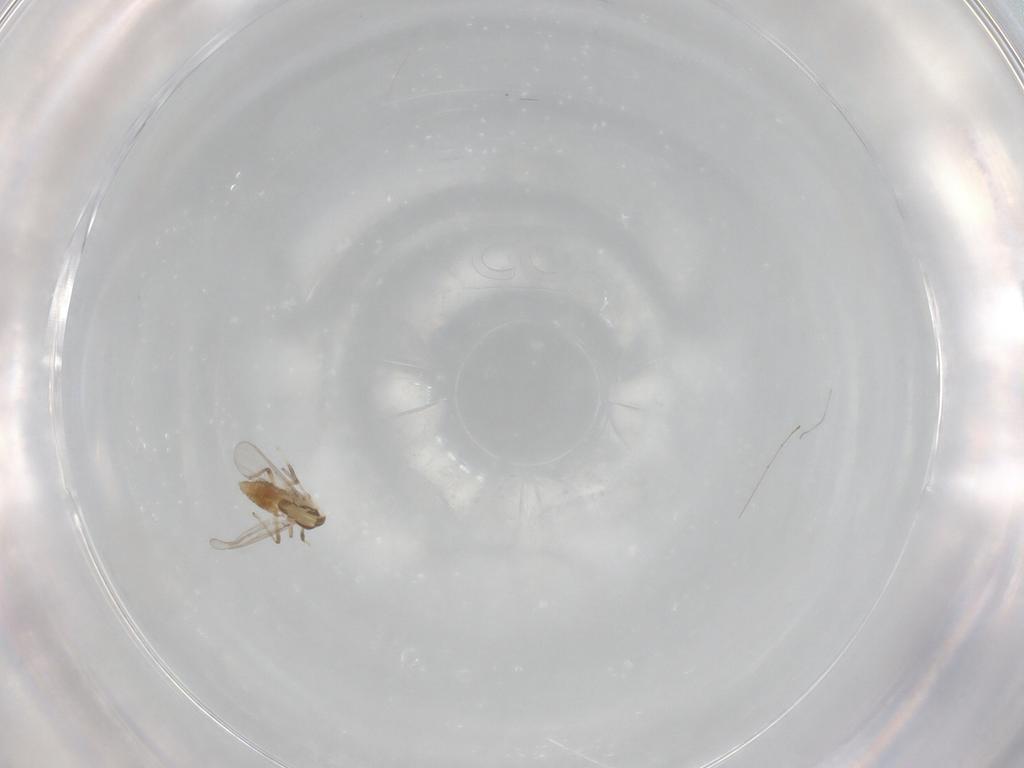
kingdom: Animalia
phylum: Arthropoda
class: Insecta
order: Diptera
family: Chironomidae
